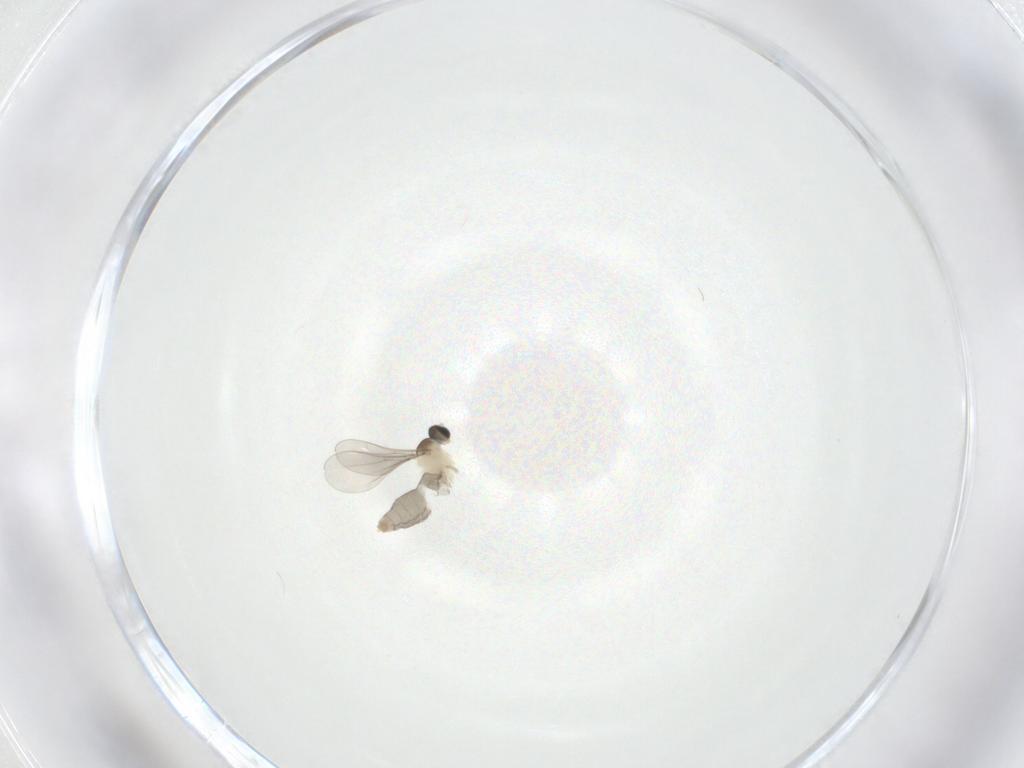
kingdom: Animalia
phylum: Arthropoda
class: Insecta
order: Diptera
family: Cecidomyiidae
